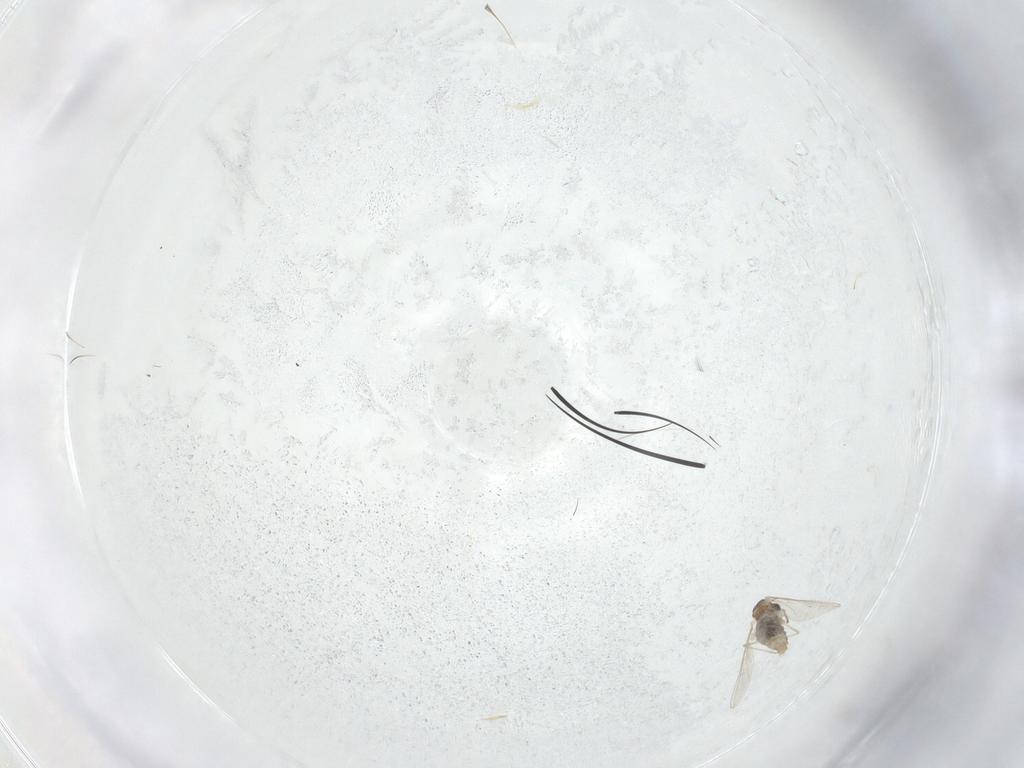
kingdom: Animalia
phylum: Arthropoda
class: Insecta
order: Diptera
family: Cecidomyiidae
